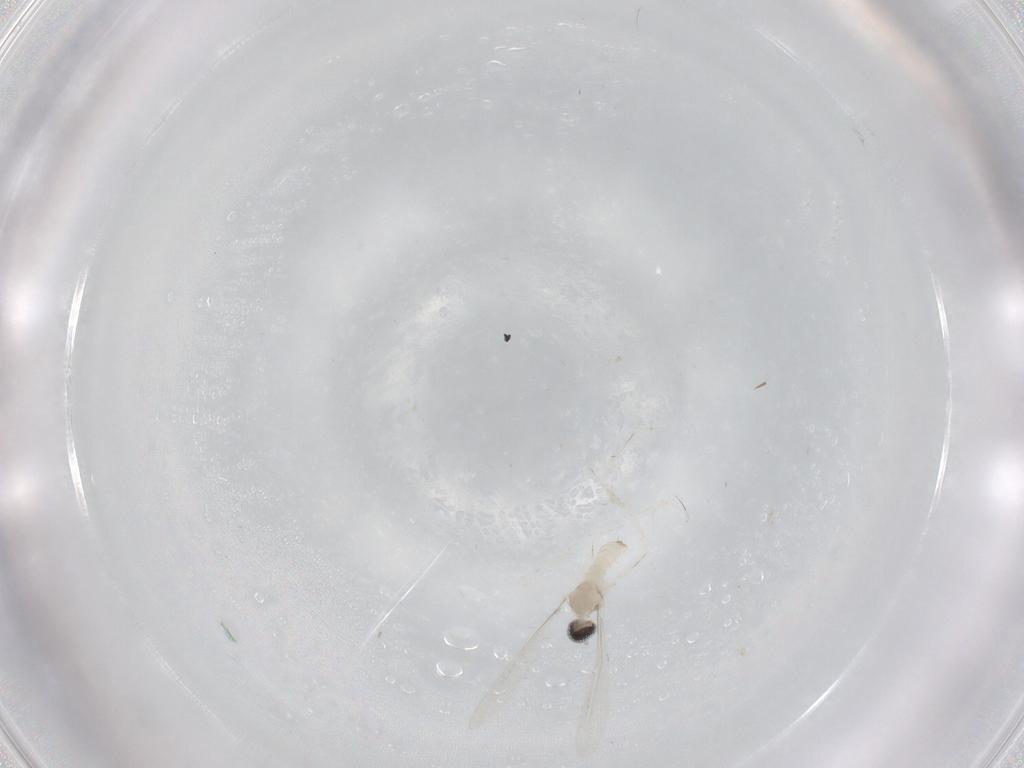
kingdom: Animalia
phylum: Arthropoda
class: Insecta
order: Diptera
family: Cecidomyiidae
